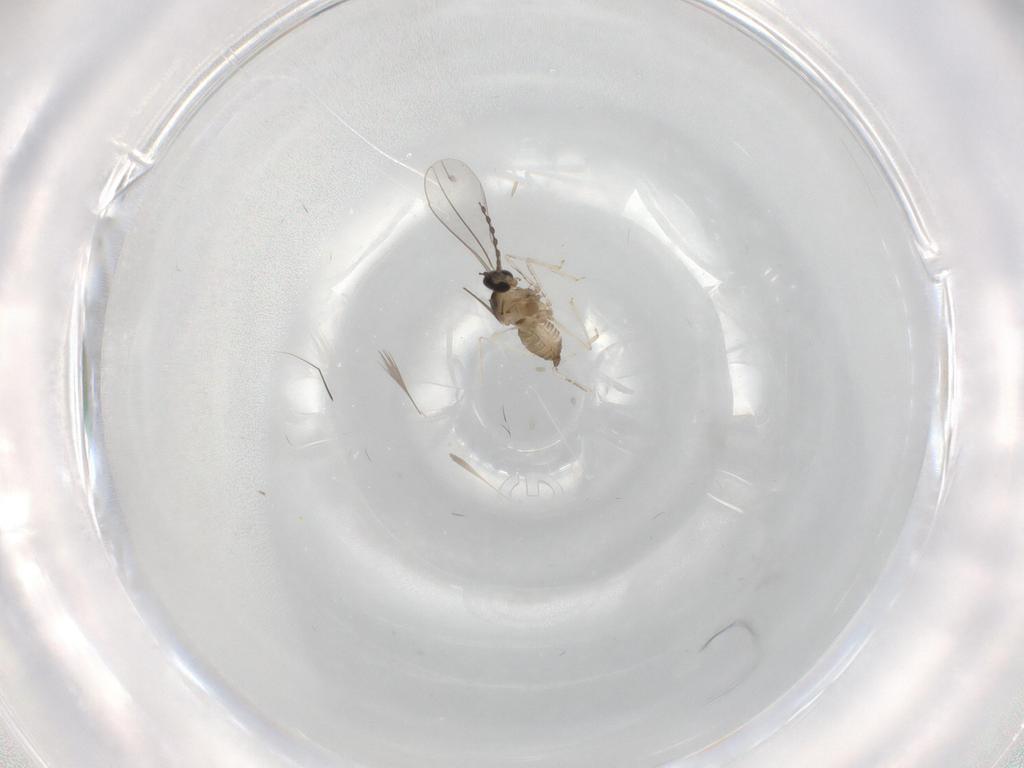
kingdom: Animalia
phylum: Arthropoda
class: Insecta
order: Diptera
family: Cecidomyiidae
